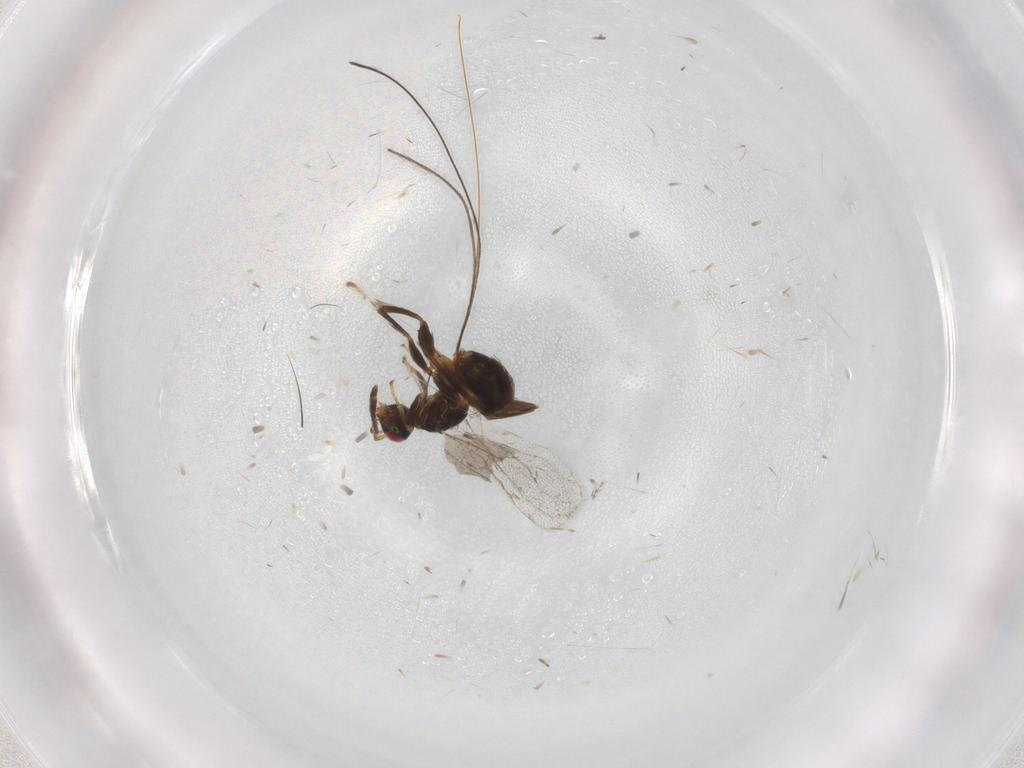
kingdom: Animalia
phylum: Arthropoda
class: Insecta
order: Hymenoptera
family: Torymidae
